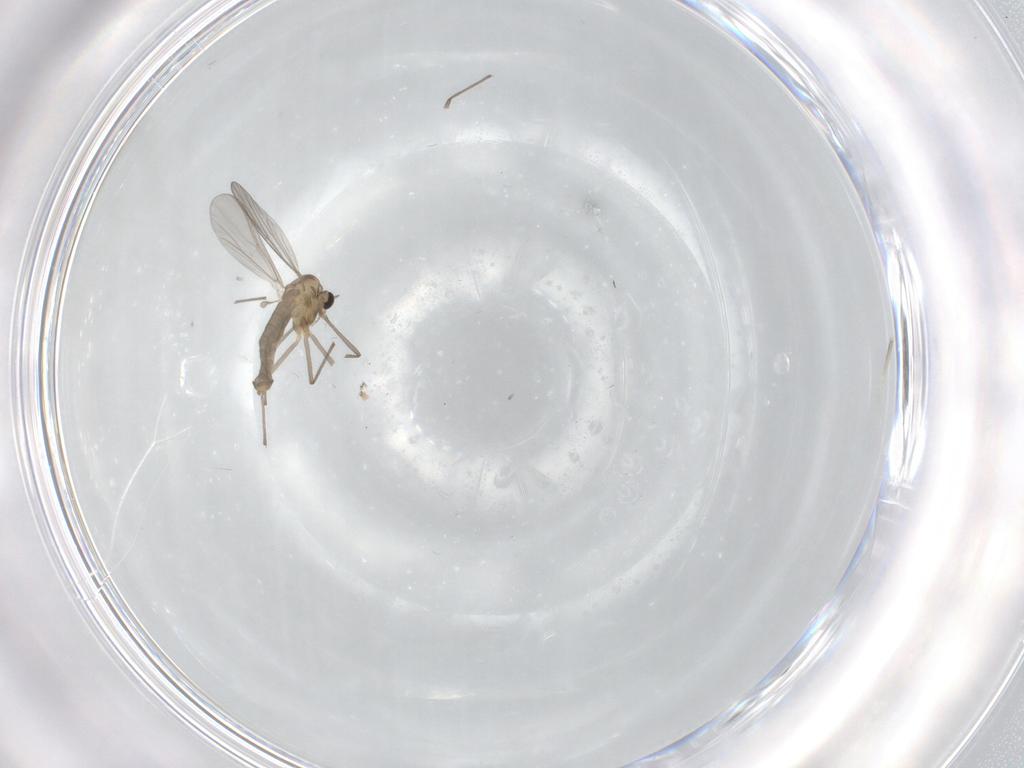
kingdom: Animalia
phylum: Arthropoda
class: Insecta
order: Diptera
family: Chironomidae
